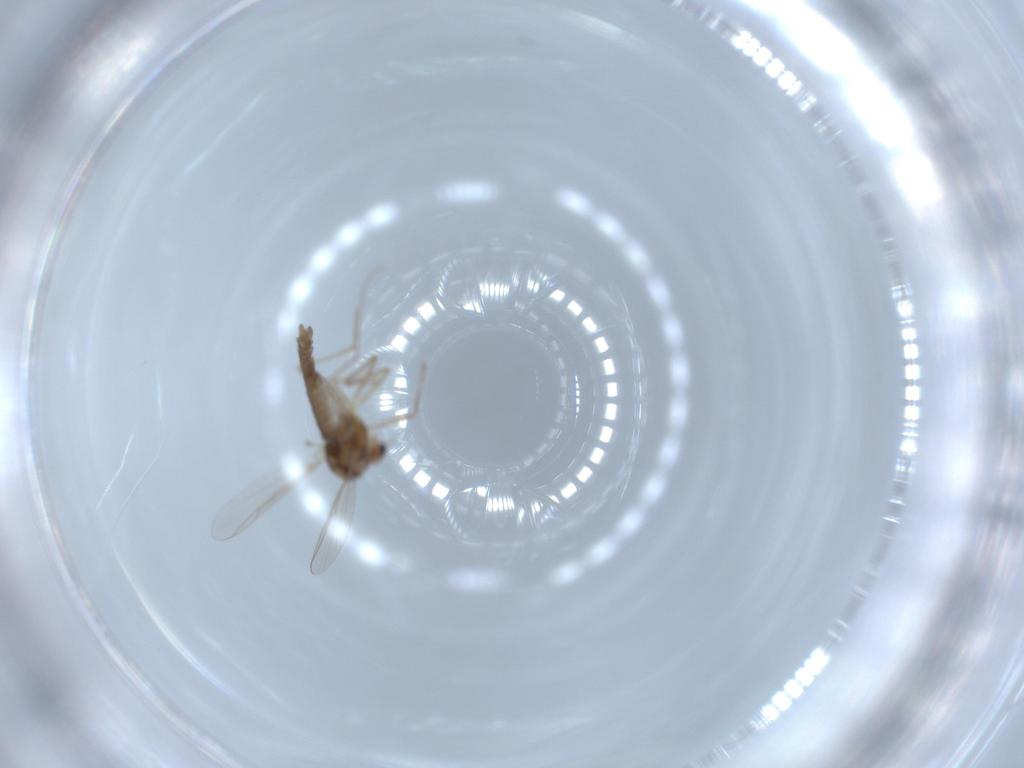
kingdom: Animalia
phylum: Arthropoda
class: Insecta
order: Diptera
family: Chironomidae
